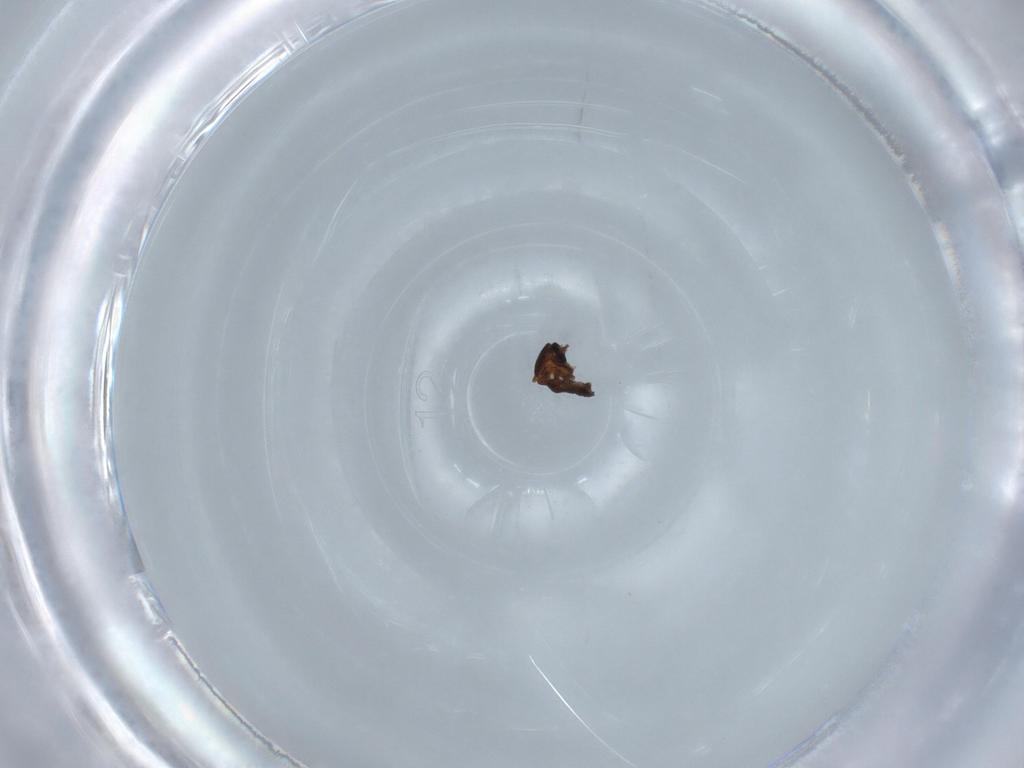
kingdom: Animalia
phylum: Arthropoda
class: Insecta
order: Diptera
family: Ceratopogonidae
